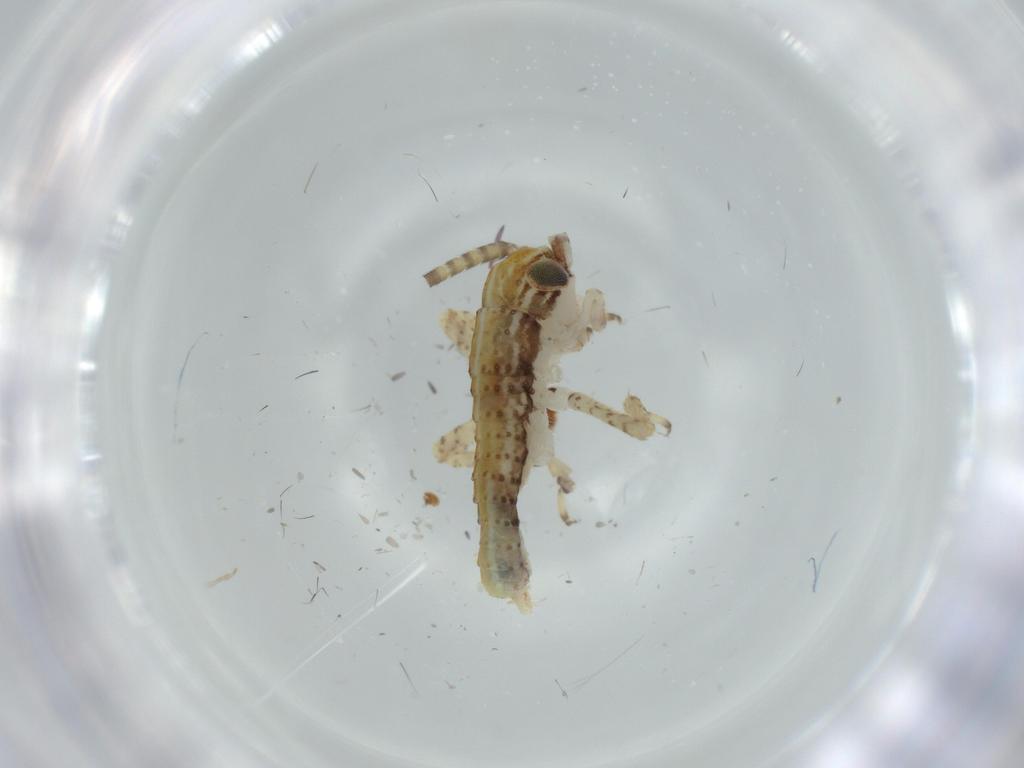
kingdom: Animalia
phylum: Arthropoda
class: Insecta
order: Orthoptera
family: Gryllidae
